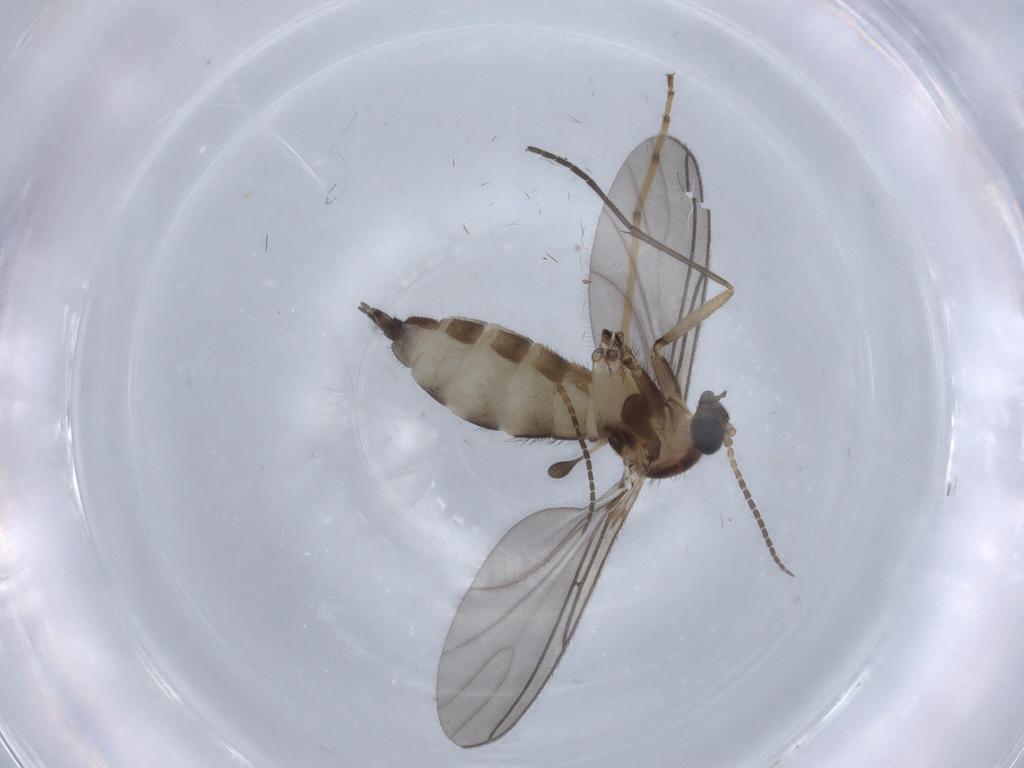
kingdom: Animalia
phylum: Arthropoda
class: Insecta
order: Diptera
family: Sciaridae
